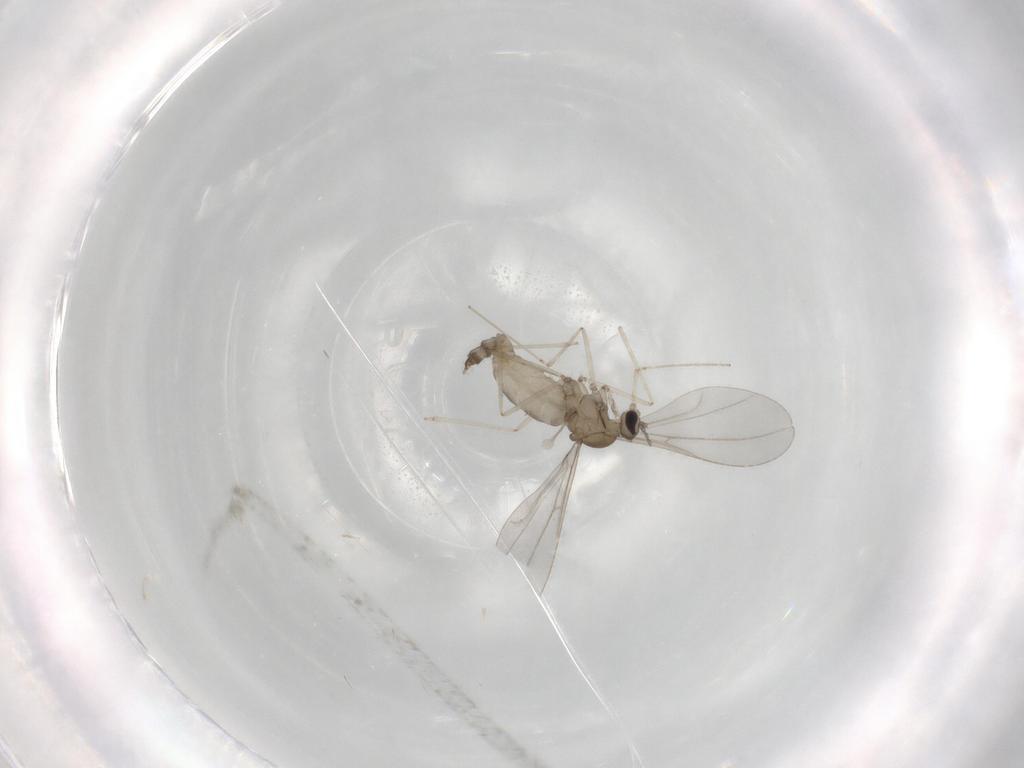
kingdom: Animalia
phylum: Arthropoda
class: Insecta
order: Diptera
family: Cecidomyiidae
